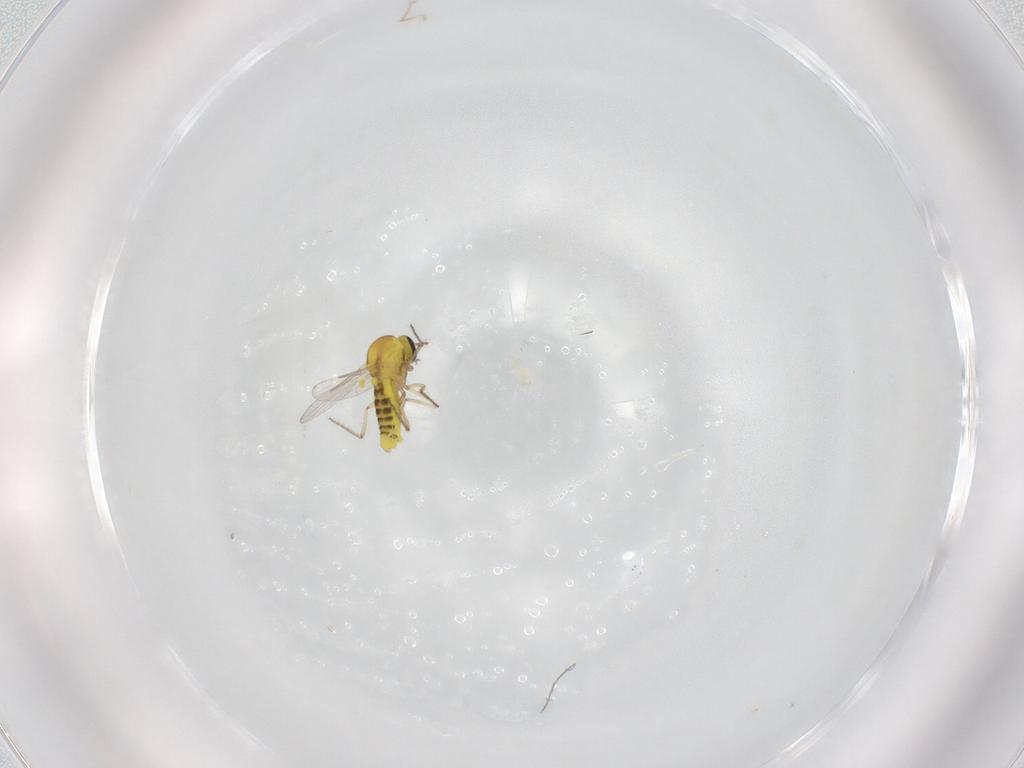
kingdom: Animalia
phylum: Arthropoda
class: Insecta
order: Diptera
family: Ceratopogonidae
